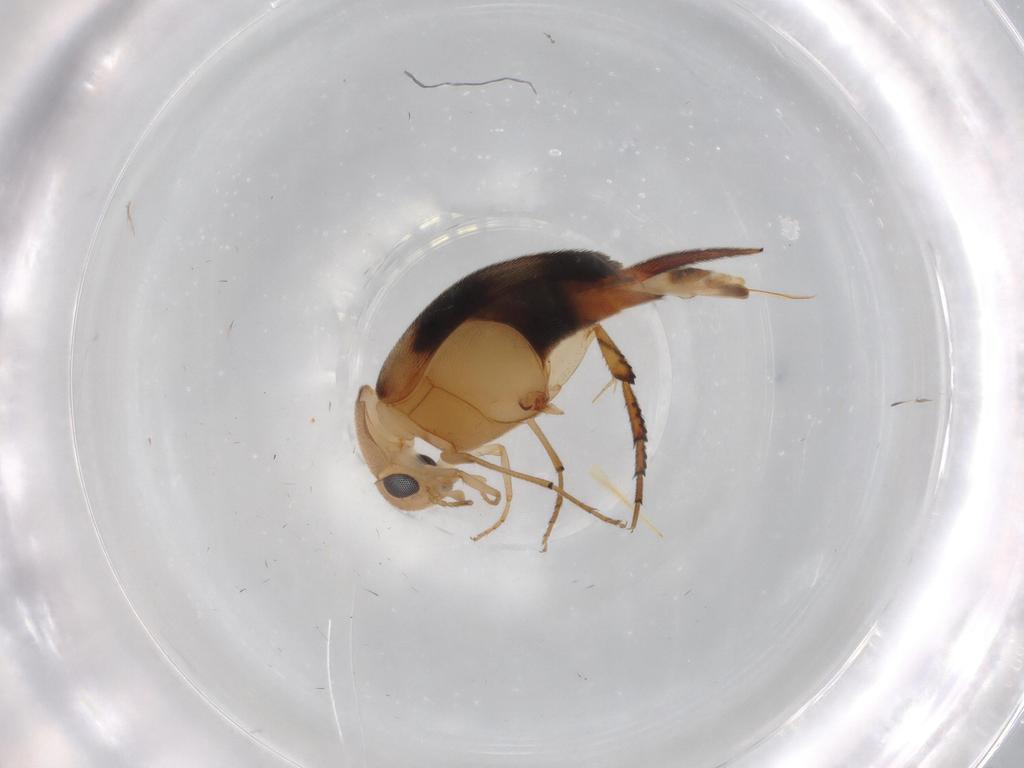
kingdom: Animalia
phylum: Arthropoda
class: Insecta
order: Coleoptera
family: Mordellidae
